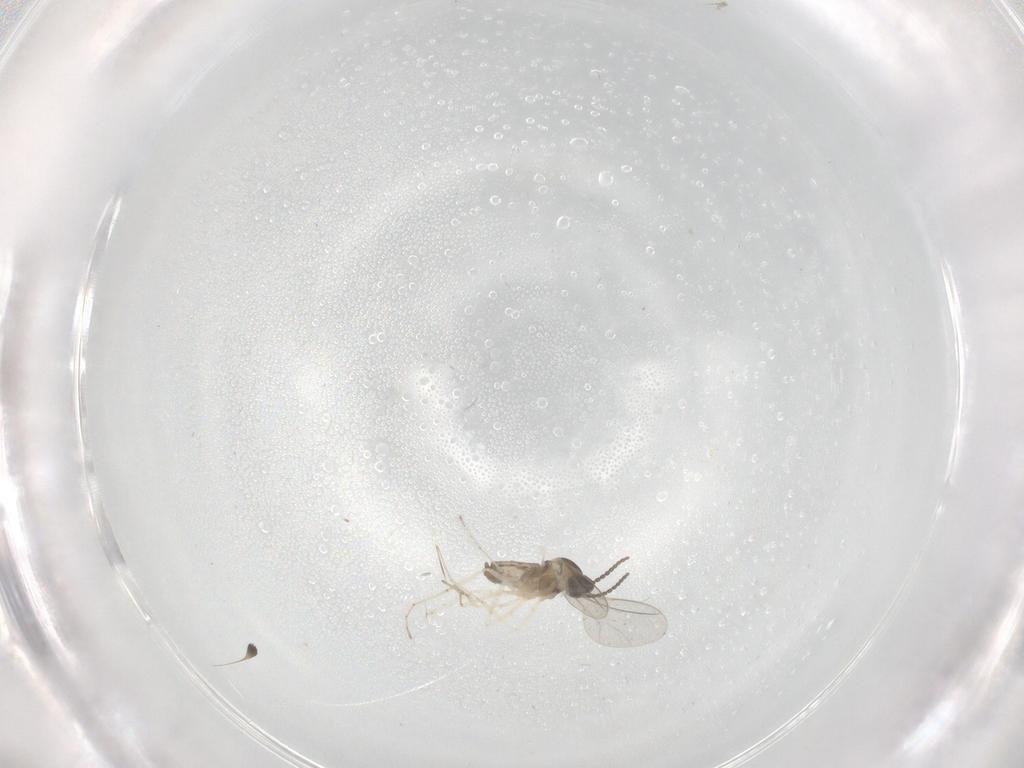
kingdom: Animalia
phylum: Arthropoda
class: Insecta
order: Diptera
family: Cecidomyiidae
